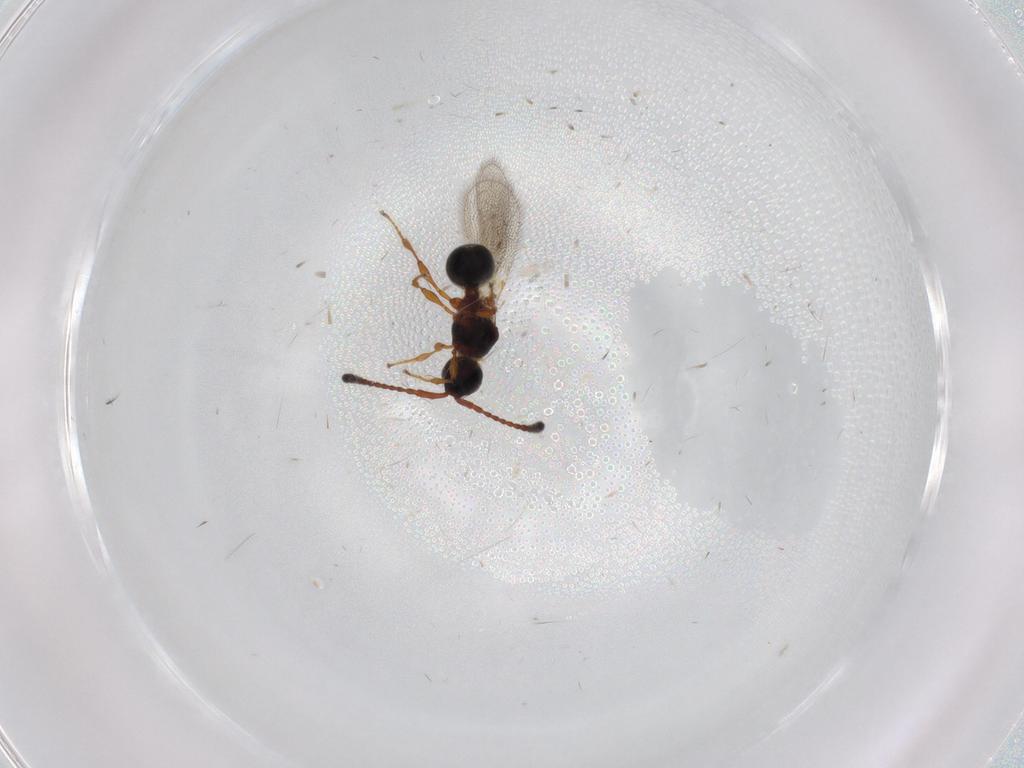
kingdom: Animalia
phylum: Arthropoda
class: Insecta
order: Hymenoptera
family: Diapriidae
